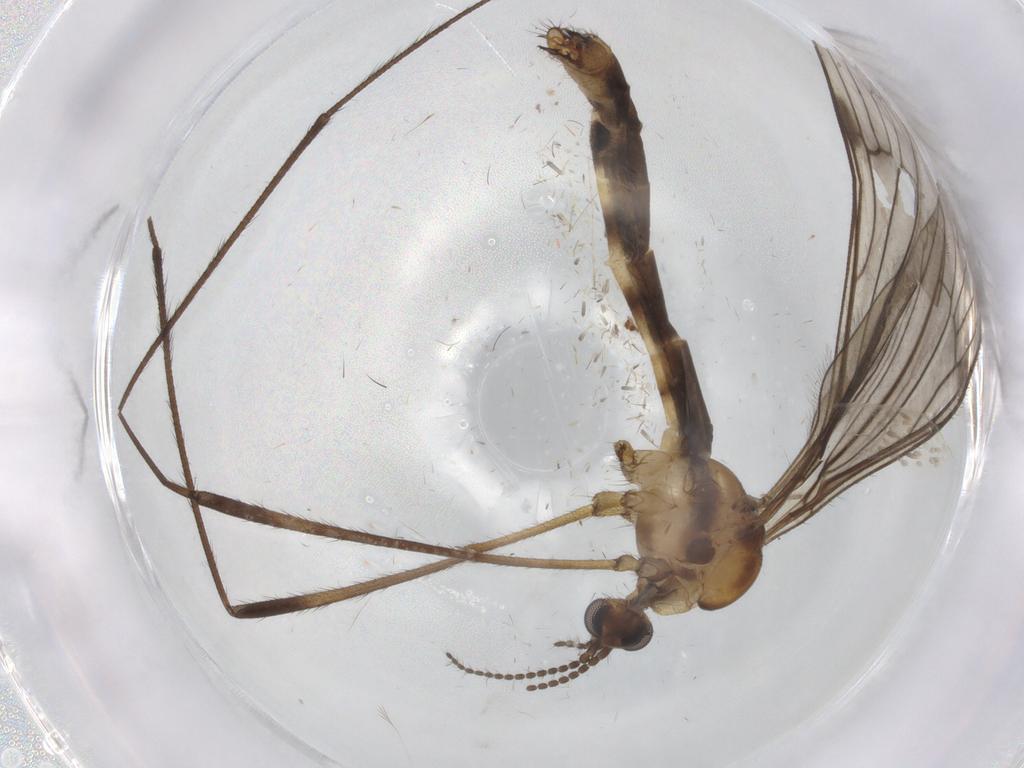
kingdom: Animalia
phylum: Arthropoda
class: Insecta
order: Diptera
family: Limoniidae
